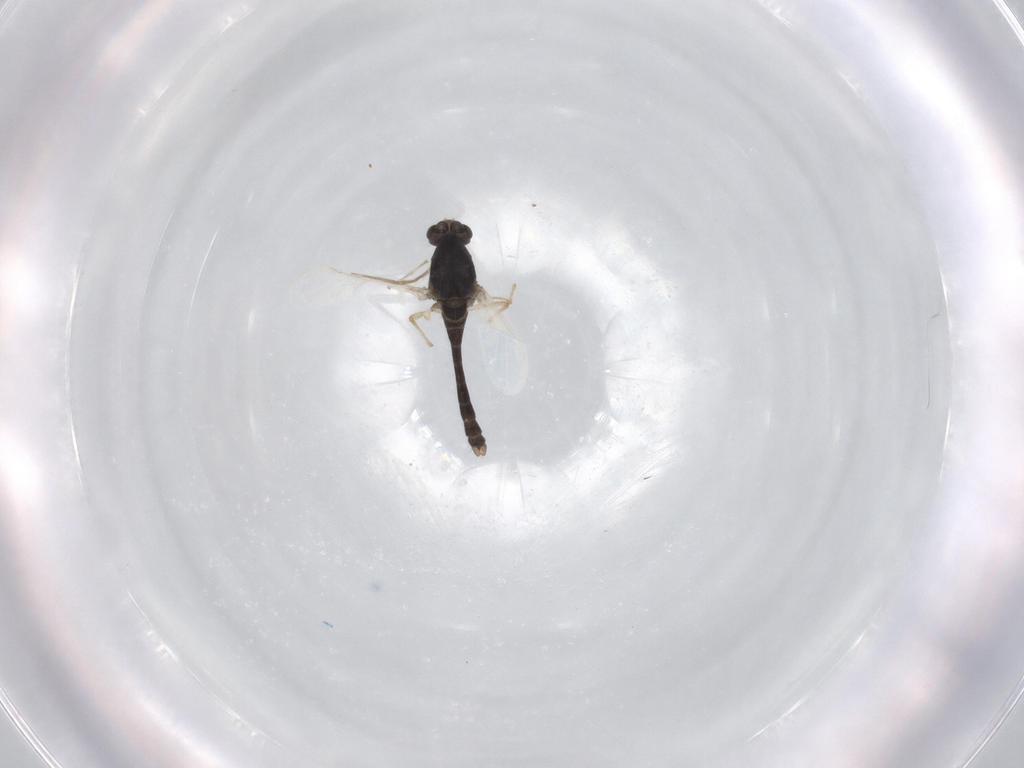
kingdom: Animalia
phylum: Arthropoda
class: Insecta
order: Diptera
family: Chironomidae
